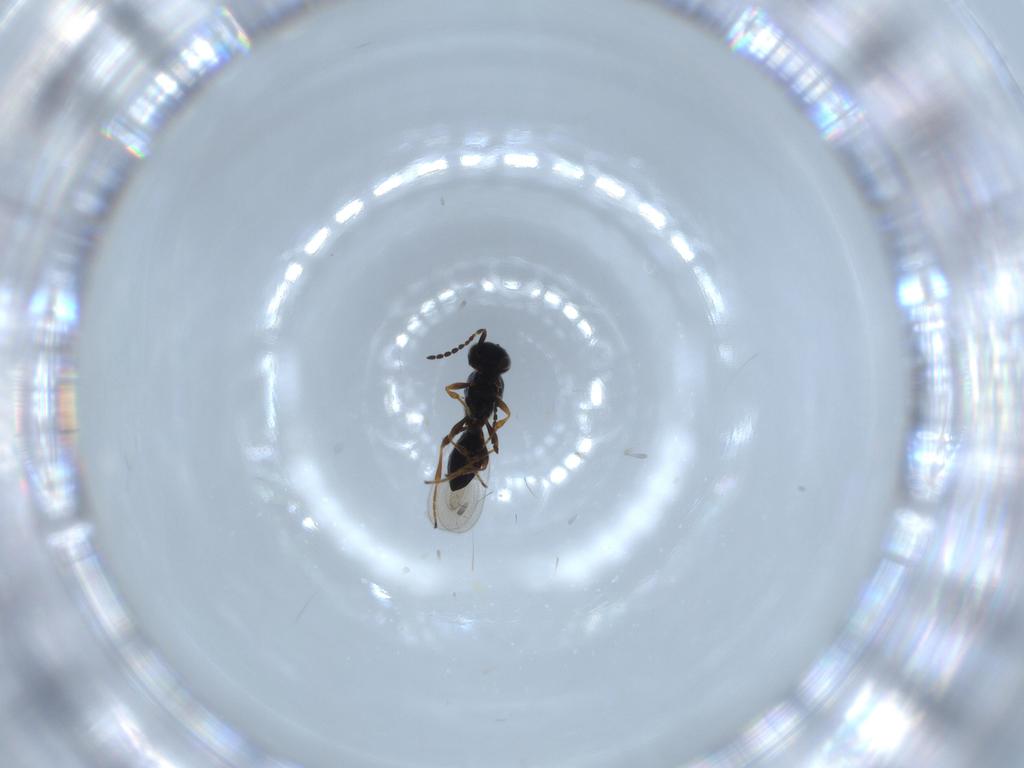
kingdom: Animalia
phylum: Arthropoda
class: Insecta
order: Hymenoptera
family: Platygastridae
